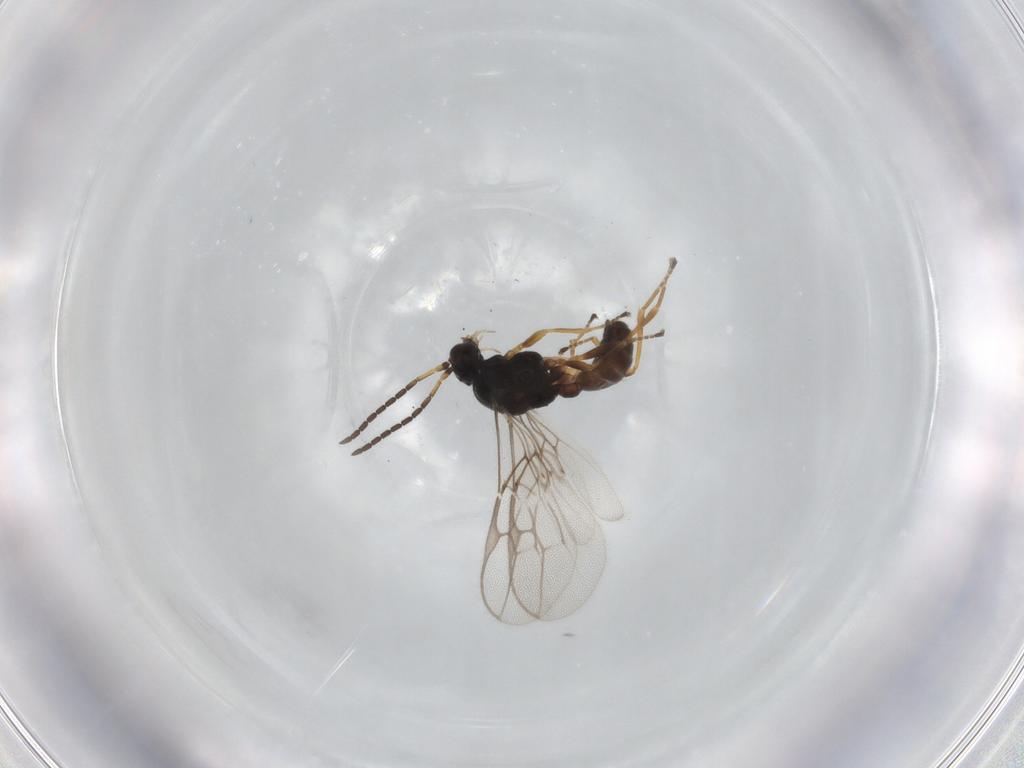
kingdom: Animalia
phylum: Arthropoda
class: Insecta
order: Hymenoptera
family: Braconidae
